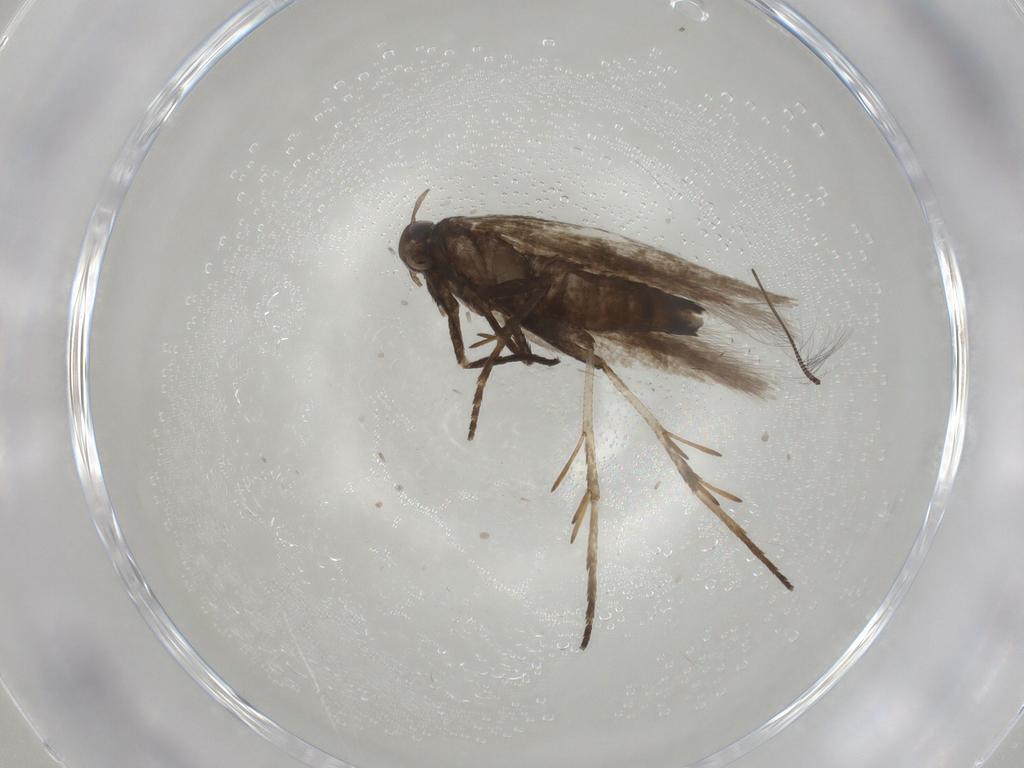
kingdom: Animalia
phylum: Arthropoda
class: Insecta
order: Lepidoptera
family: Gelechiidae
